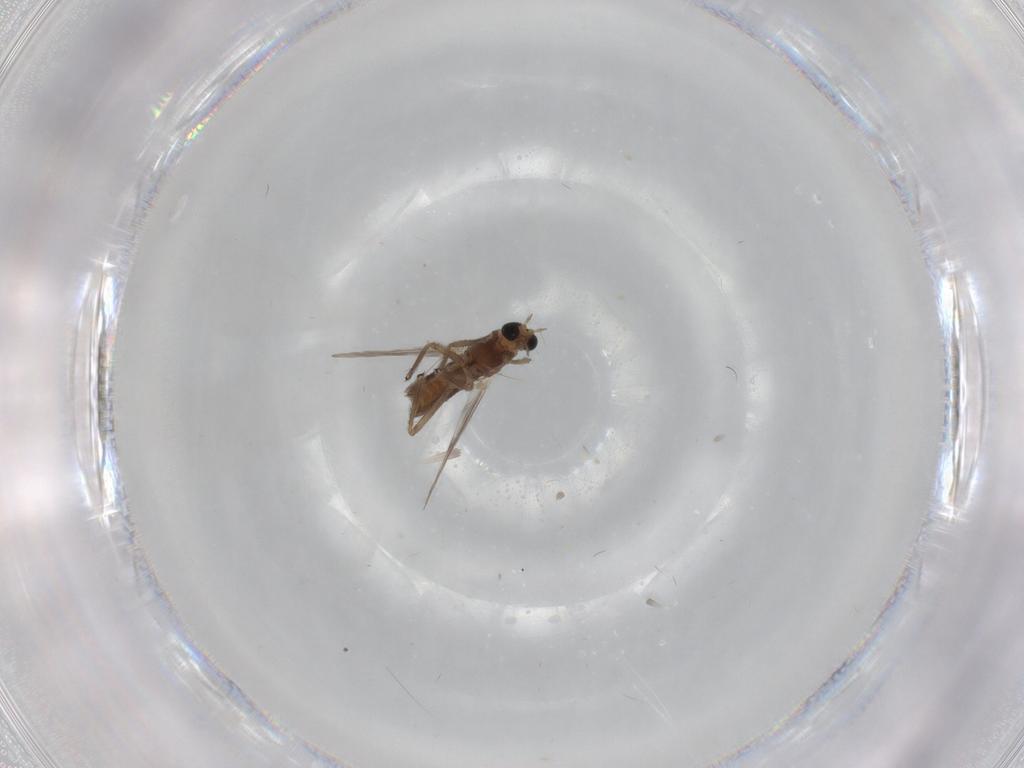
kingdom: Animalia
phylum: Arthropoda
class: Insecta
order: Diptera
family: Chironomidae
